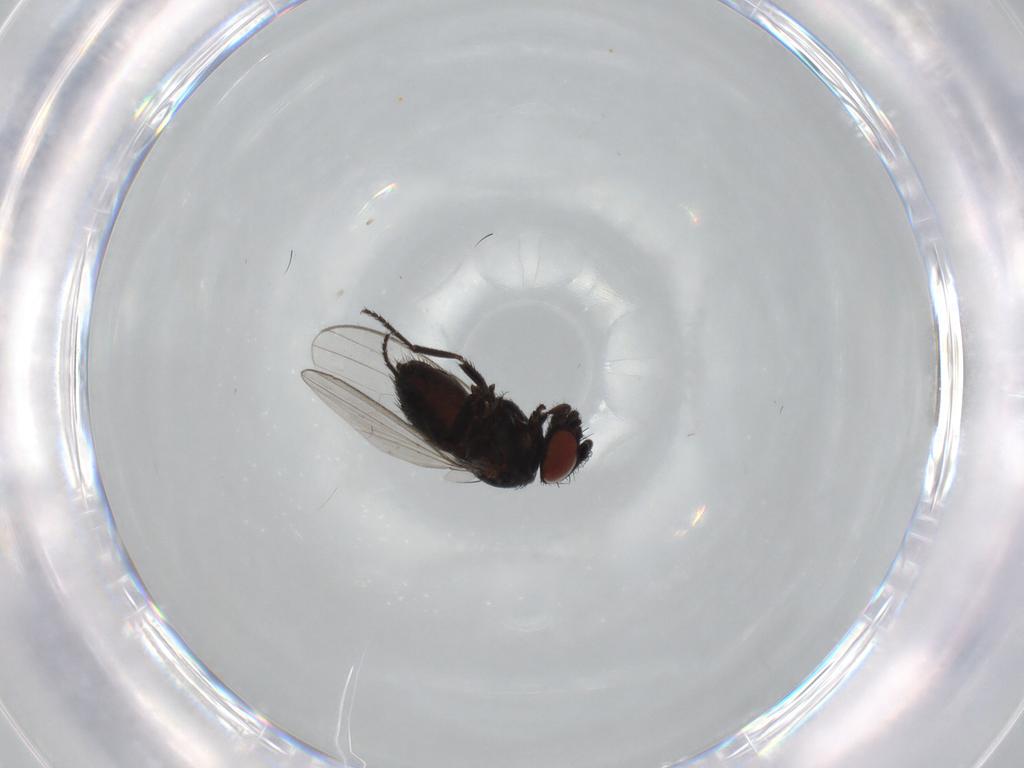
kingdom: Animalia
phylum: Arthropoda
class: Insecta
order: Diptera
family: Milichiidae
